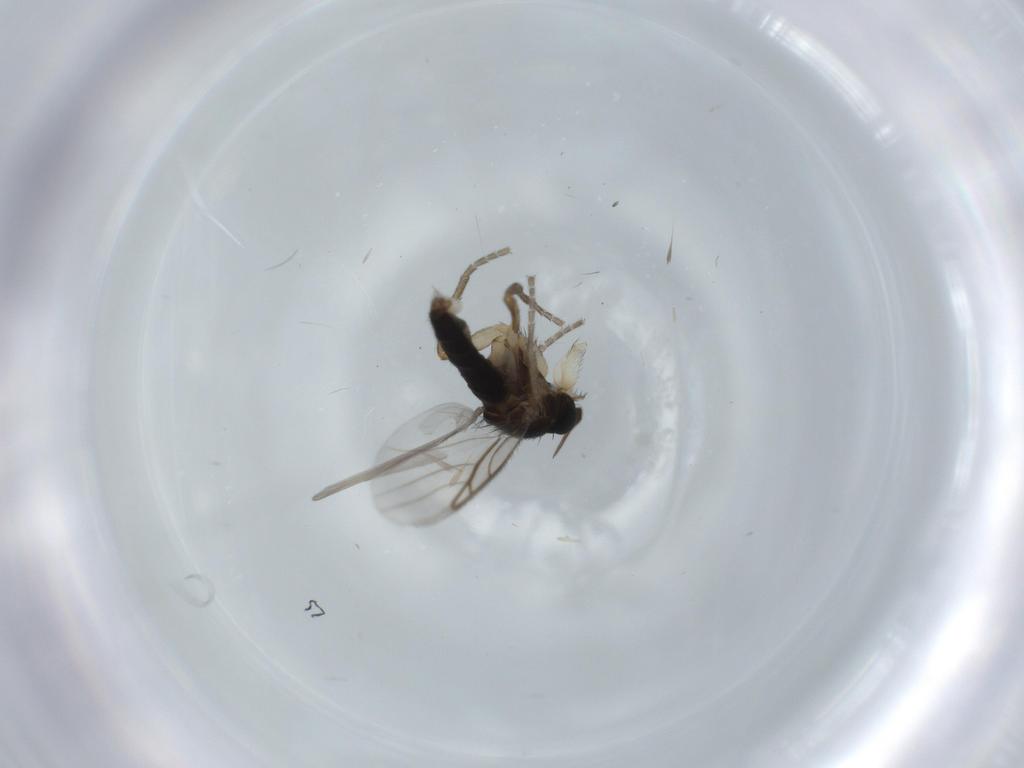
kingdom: Animalia
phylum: Arthropoda
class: Insecta
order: Diptera
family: Phoridae
